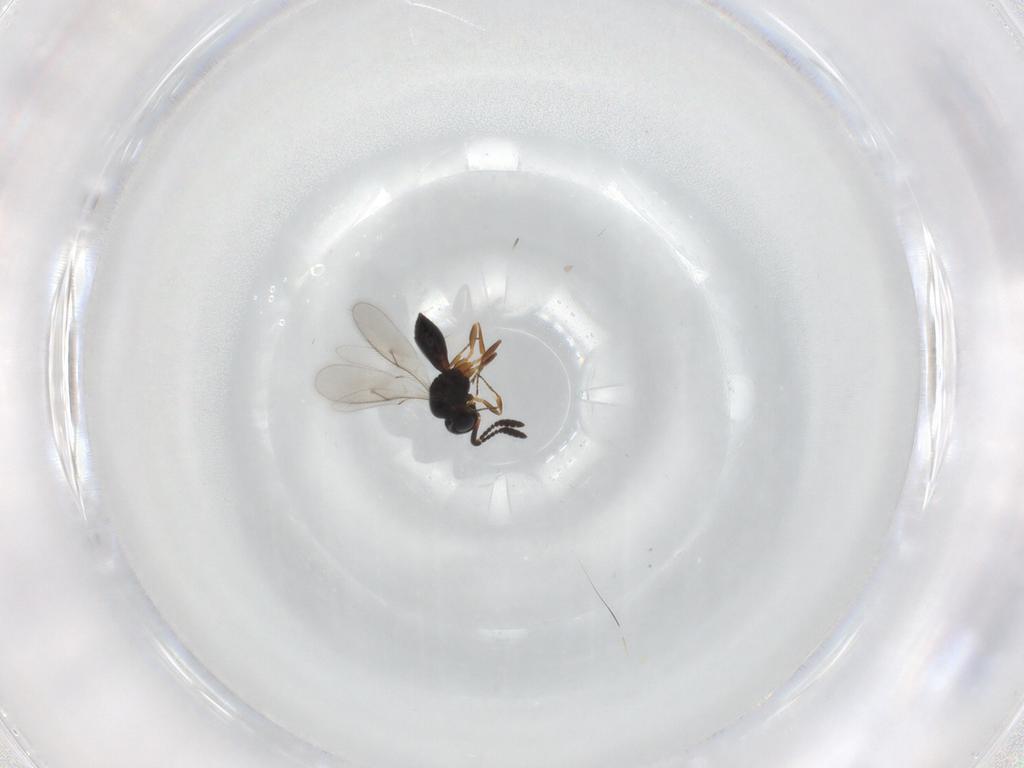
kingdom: Animalia
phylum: Arthropoda
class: Insecta
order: Hymenoptera
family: Scelionidae
